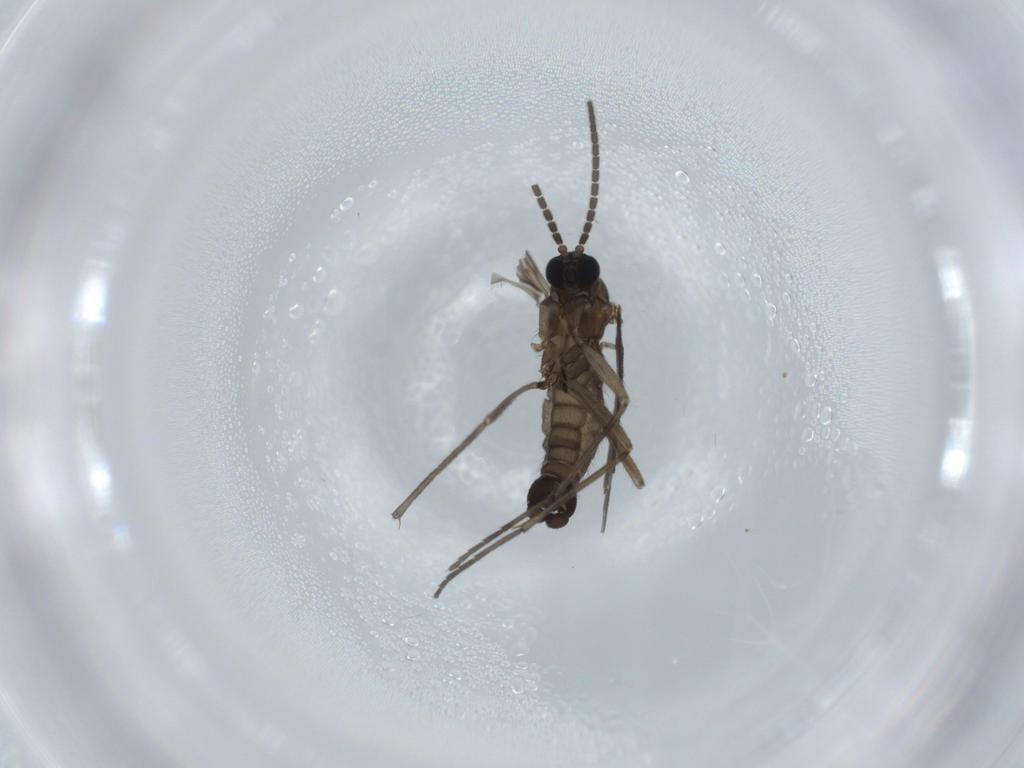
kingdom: Animalia
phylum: Arthropoda
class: Insecta
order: Diptera
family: Sciaridae
